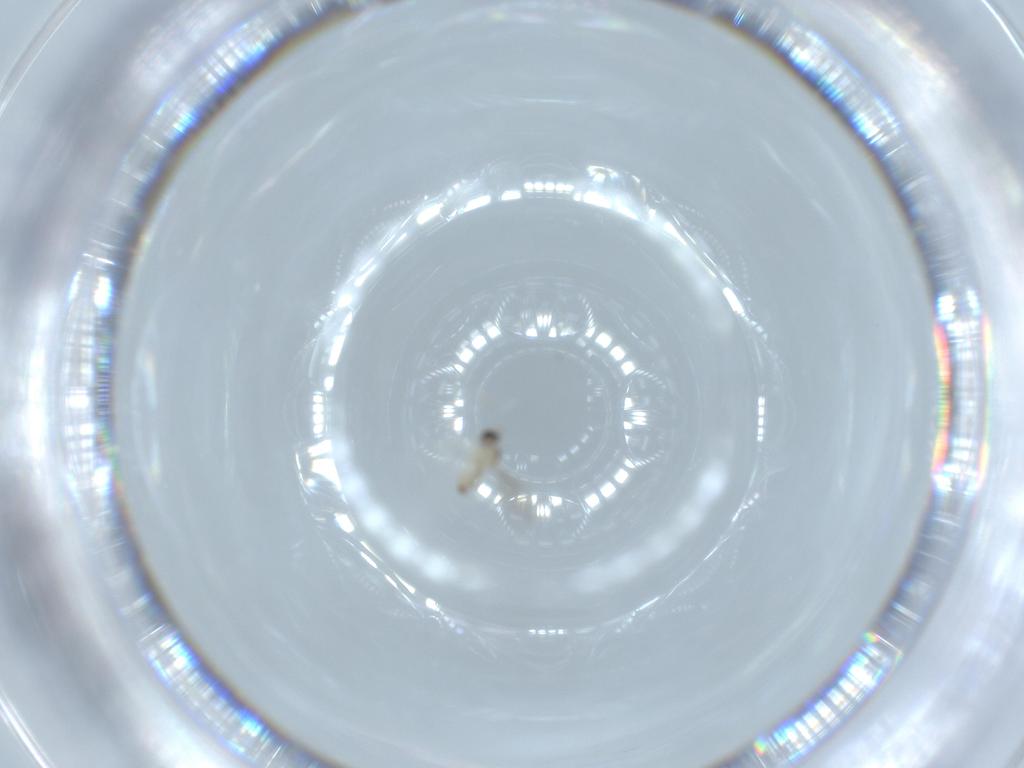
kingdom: Animalia
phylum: Arthropoda
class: Insecta
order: Diptera
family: Cecidomyiidae
